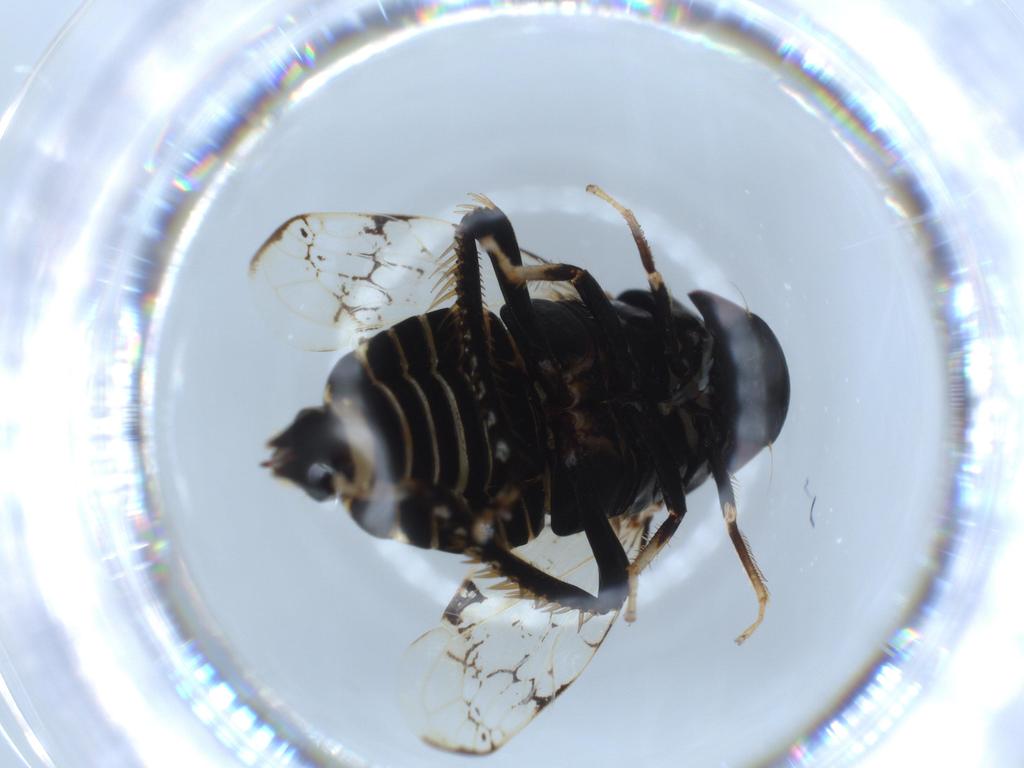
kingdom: Animalia
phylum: Arthropoda
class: Insecta
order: Hemiptera
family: Cicadellidae
